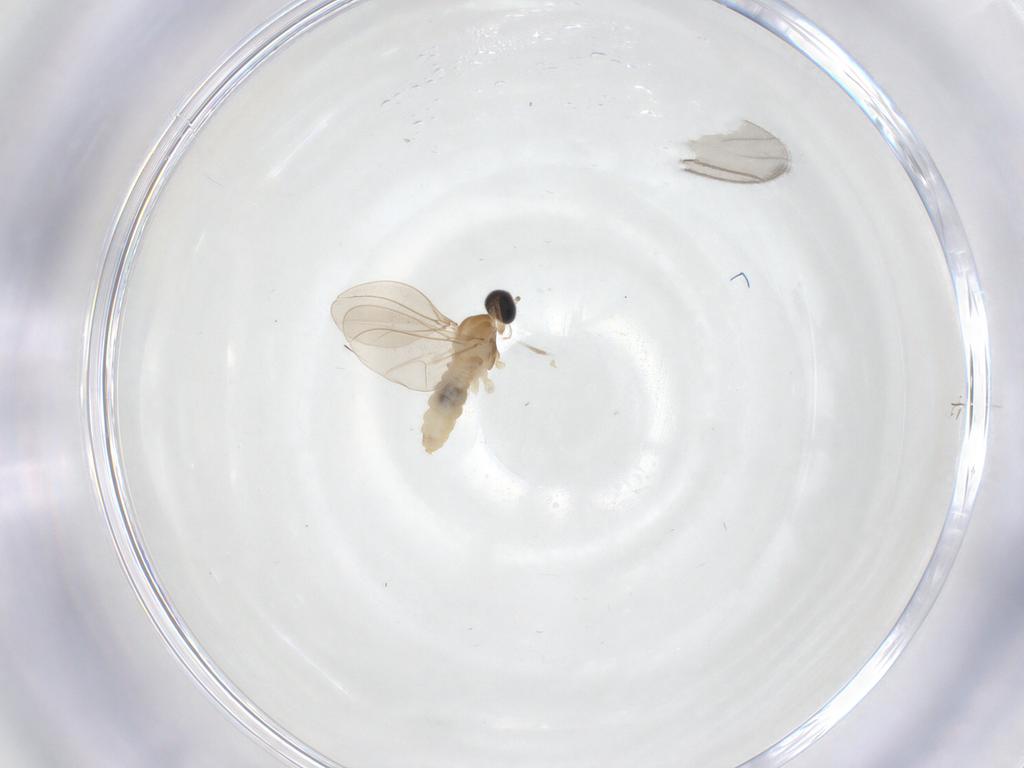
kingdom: Animalia
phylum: Arthropoda
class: Insecta
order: Diptera
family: Cecidomyiidae
